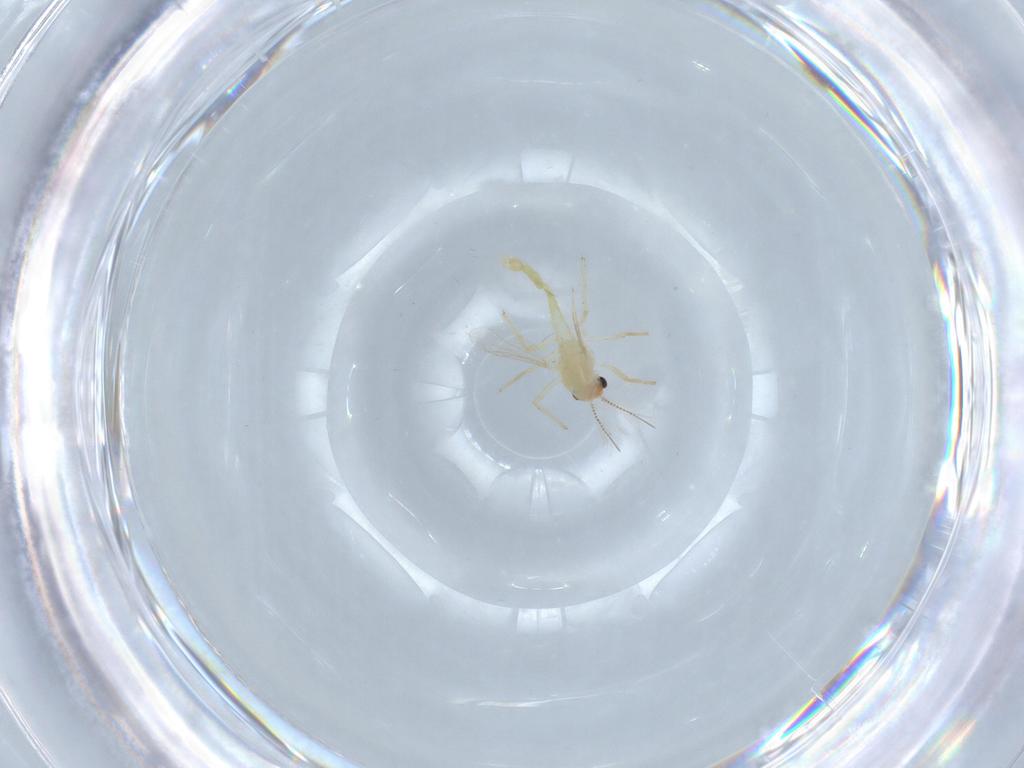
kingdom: Animalia
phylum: Arthropoda
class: Insecta
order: Diptera
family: Chironomidae
